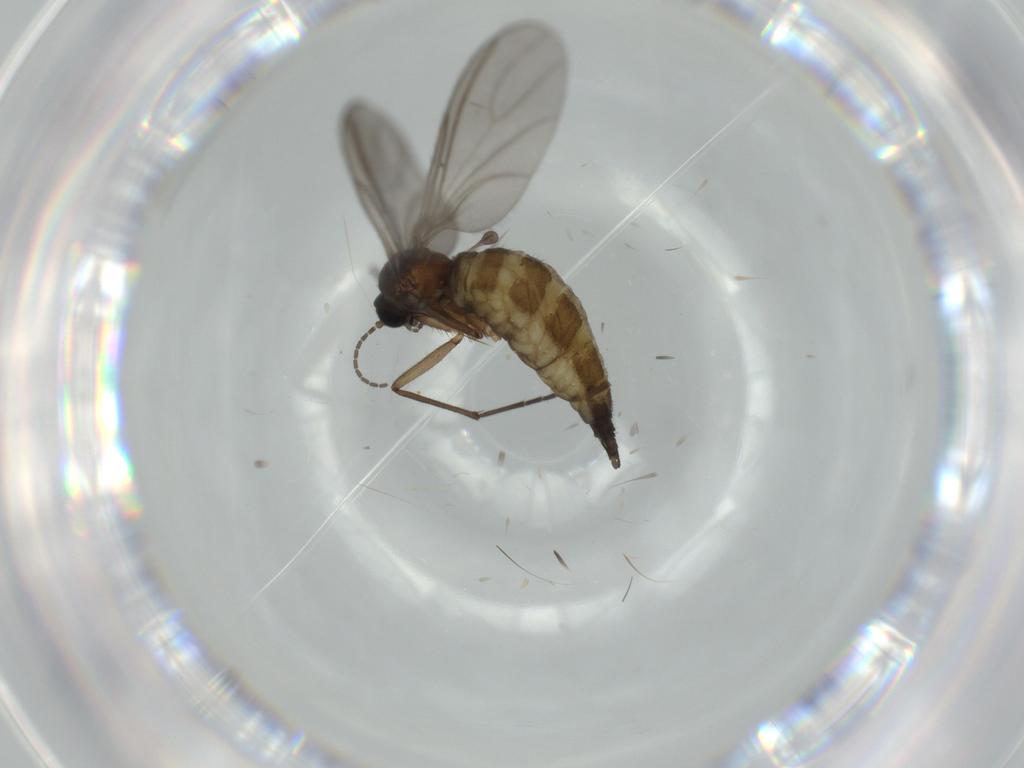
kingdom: Animalia
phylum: Arthropoda
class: Insecta
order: Diptera
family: Sciaridae
